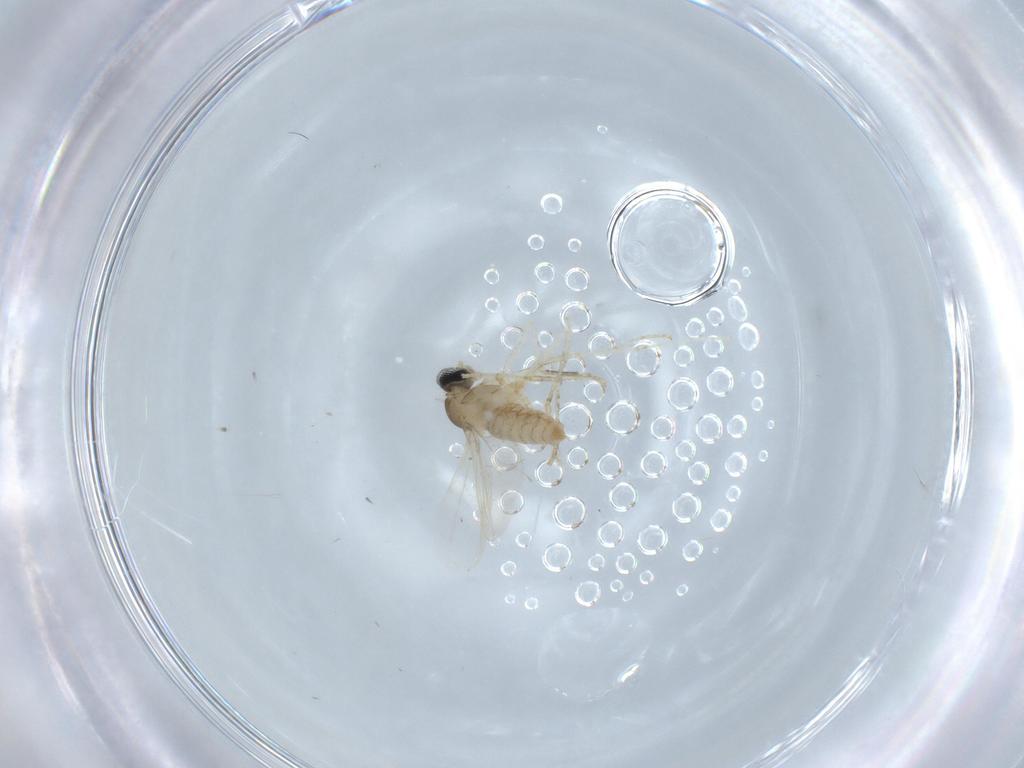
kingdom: Animalia
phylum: Arthropoda
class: Insecta
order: Diptera
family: Cecidomyiidae
